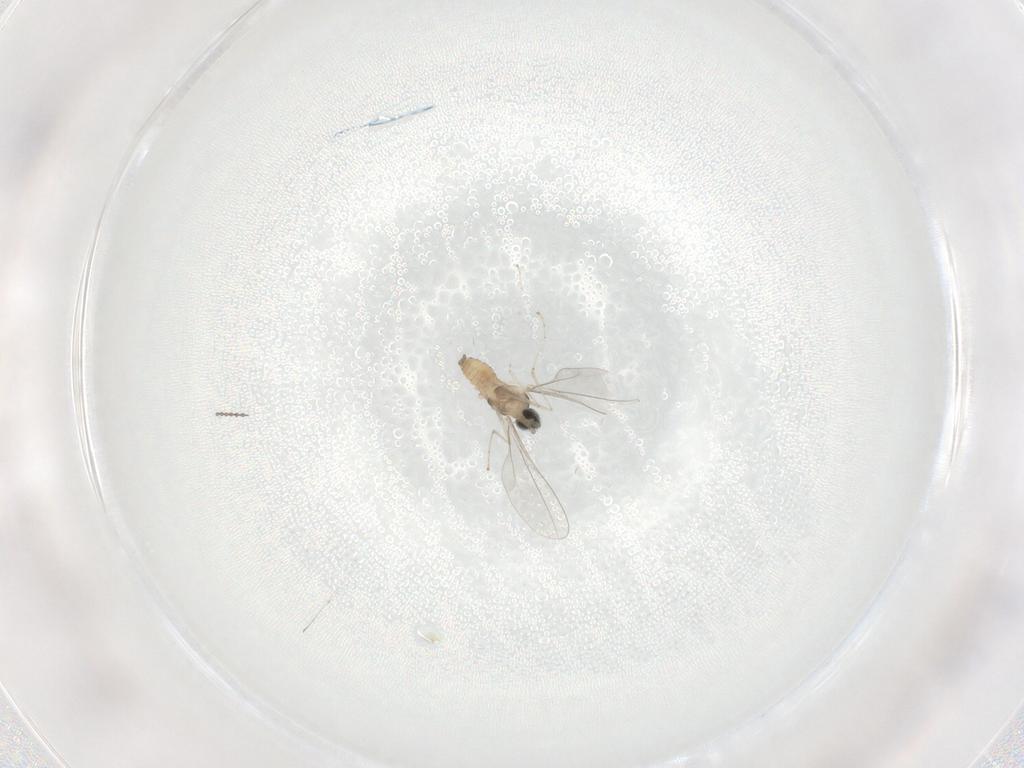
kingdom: Animalia
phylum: Arthropoda
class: Insecta
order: Diptera
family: Cecidomyiidae
